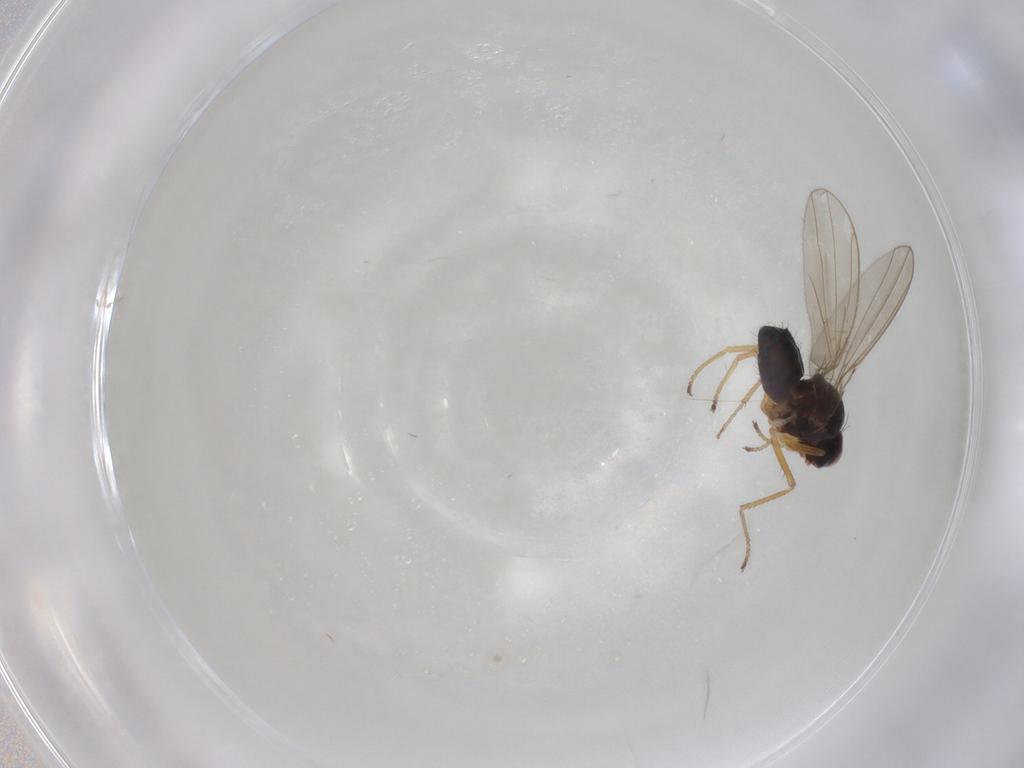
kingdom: Animalia
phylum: Arthropoda
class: Insecta
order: Diptera
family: Ephydridae
